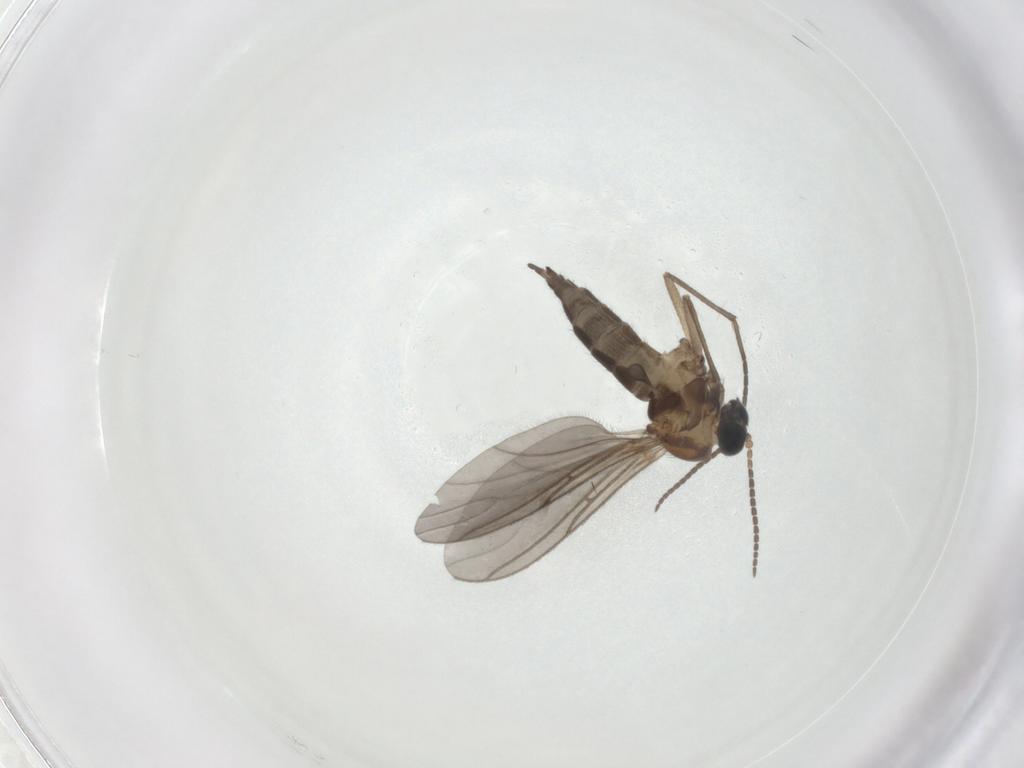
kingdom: Animalia
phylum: Arthropoda
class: Insecta
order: Diptera
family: Sciaridae
